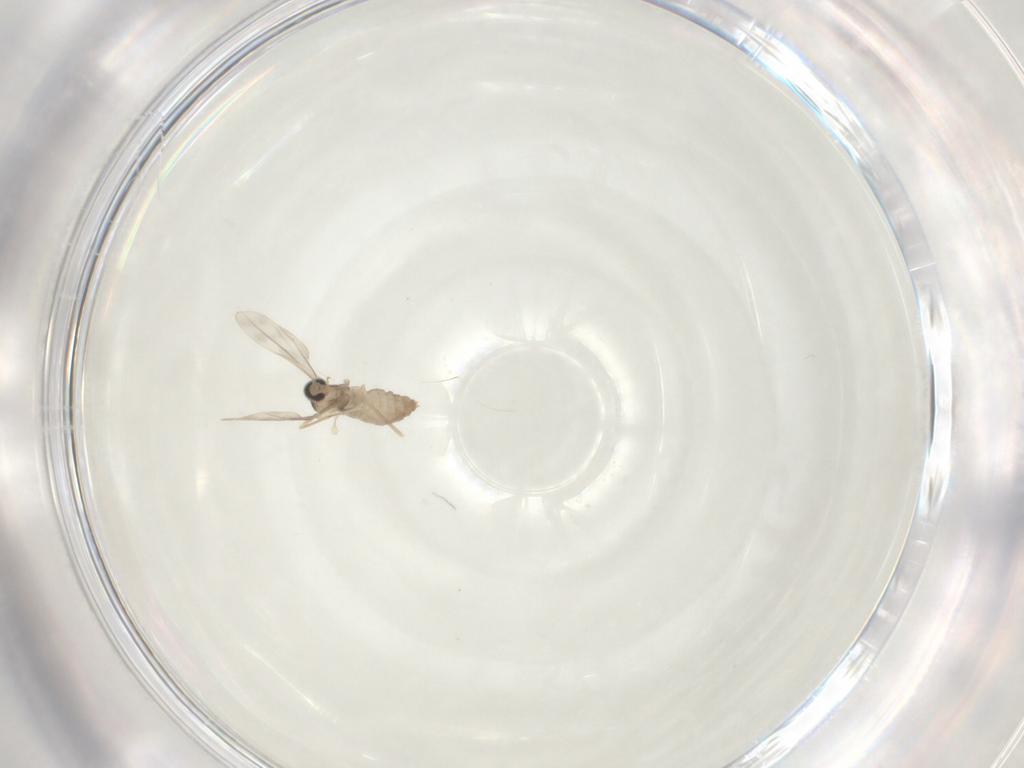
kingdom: Animalia
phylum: Arthropoda
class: Insecta
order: Diptera
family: Cecidomyiidae
